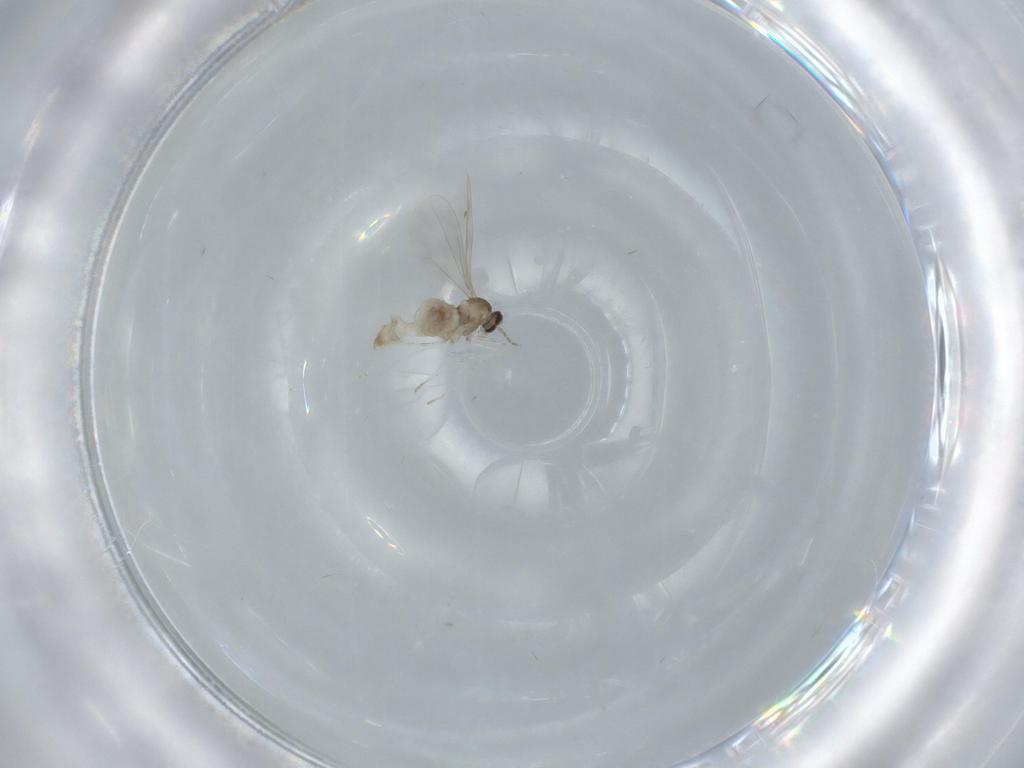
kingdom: Animalia
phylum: Arthropoda
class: Insecta
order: Diptera
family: Cecidomyiidae
